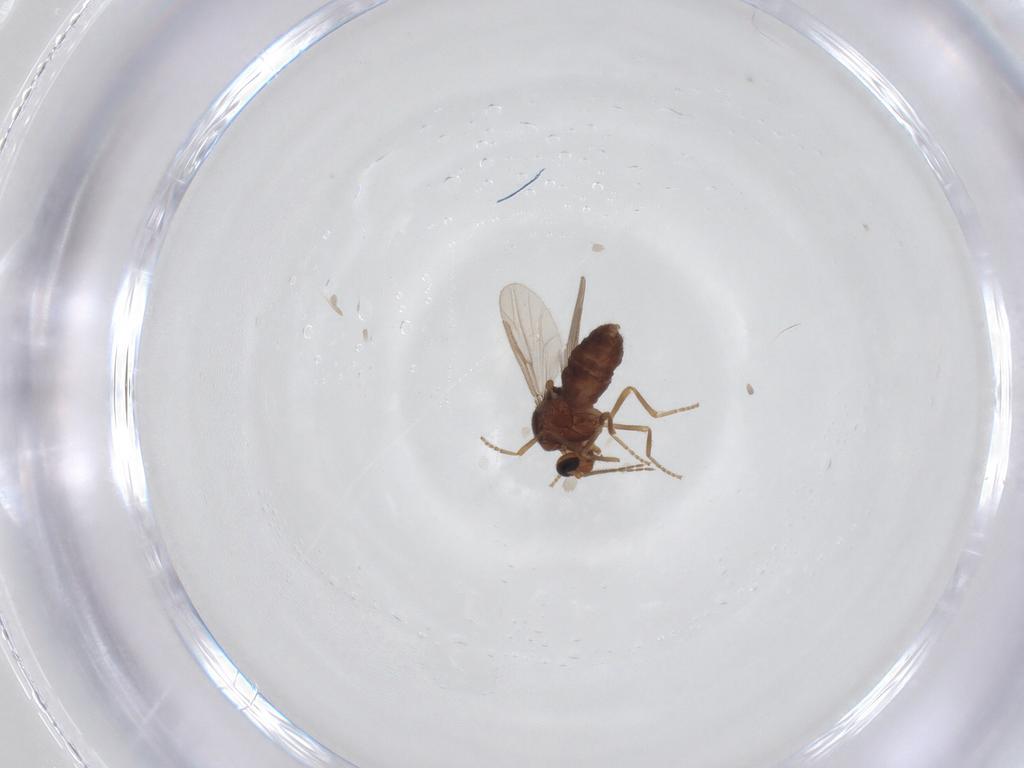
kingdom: Animalia
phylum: Arthropoda
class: Insecta
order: Diptera
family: Ceratopogonidae
